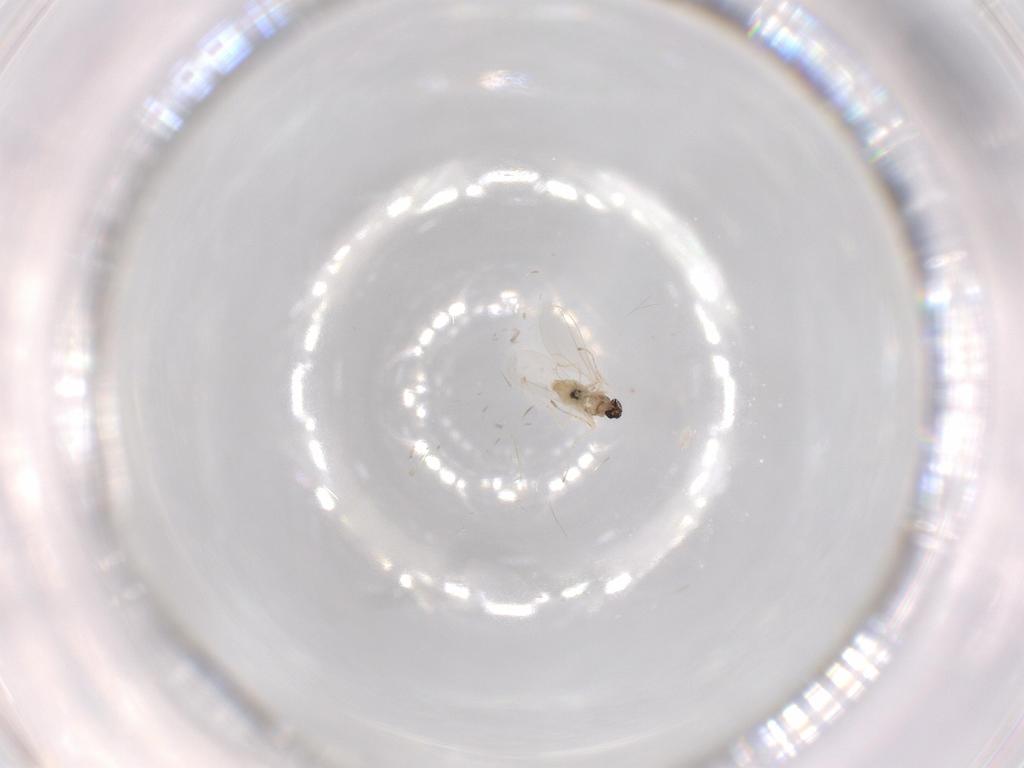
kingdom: Animalia
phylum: Arthropoda
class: Insecta
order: Diptera
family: Cecidomyiidae
